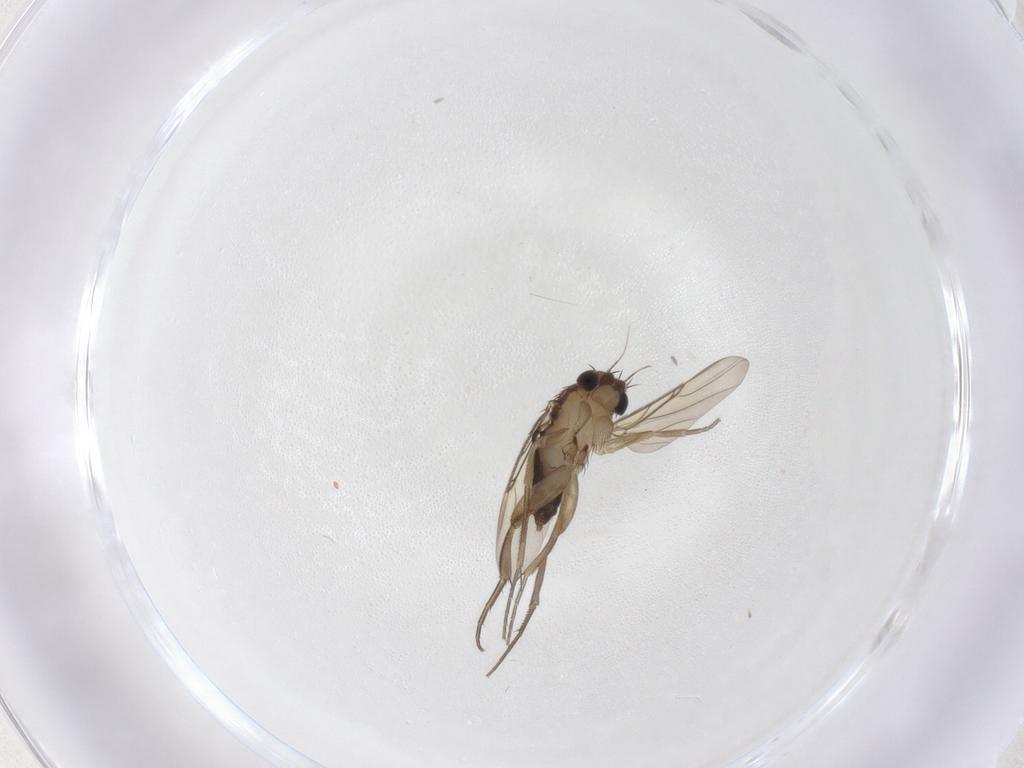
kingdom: Animalia
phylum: Arthropoda
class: Insecta
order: Diptera
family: Phoridae
